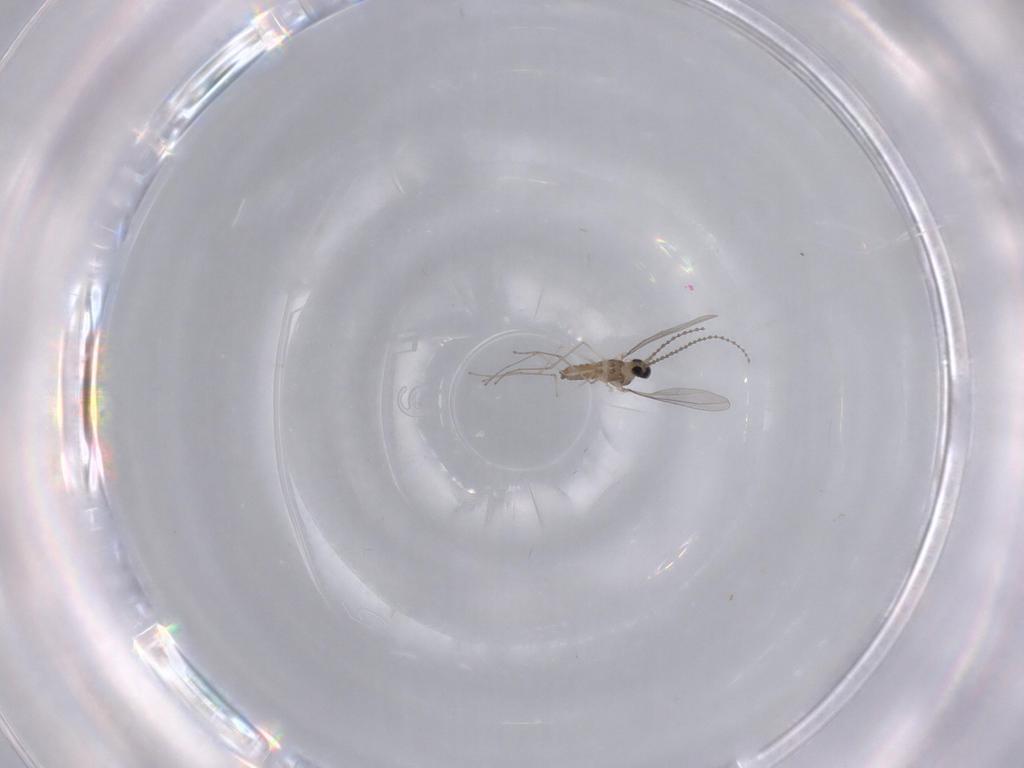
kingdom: Animalia
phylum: Arthropoda
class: Insecta
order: Diptera
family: Cecidomyiidae
